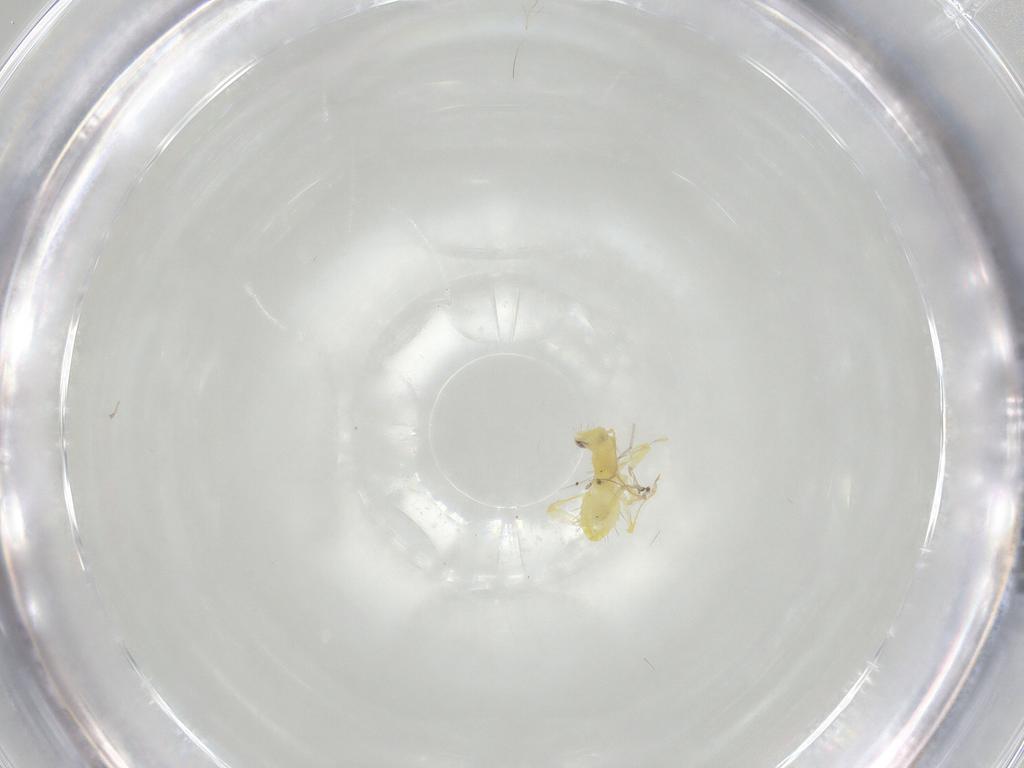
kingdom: Animalia
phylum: Arthropoda
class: Insecta
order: Hemiptera
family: Cicadellidae
